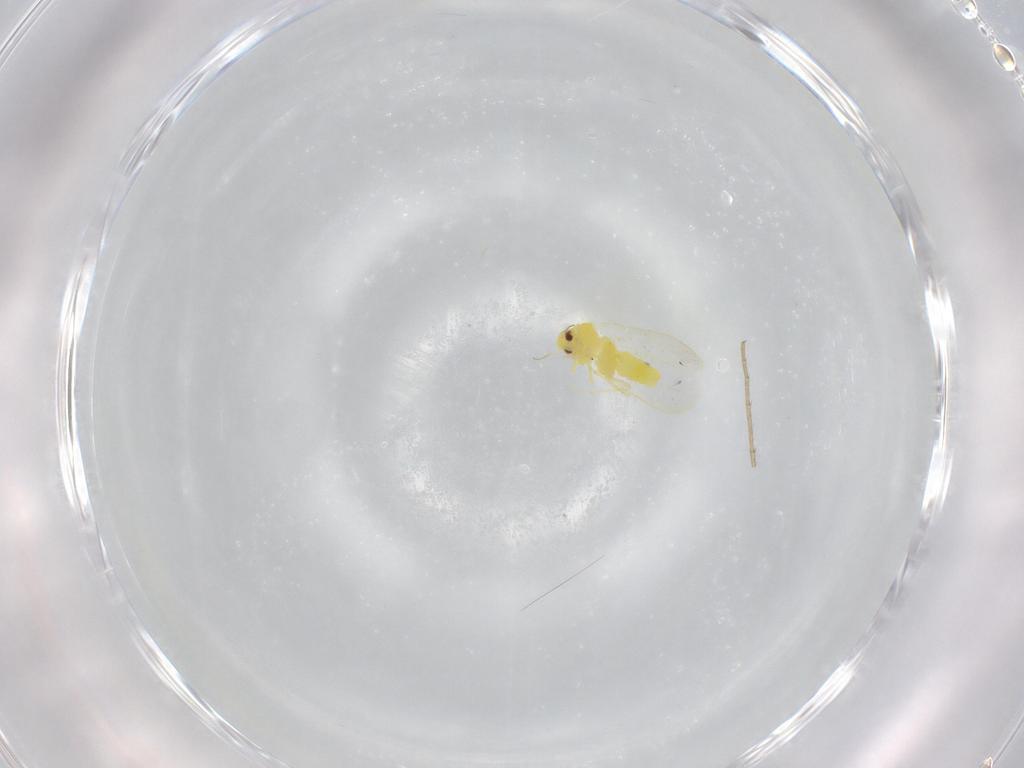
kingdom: Animalia
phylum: Arthropoda
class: Insecta
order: Hemiptera
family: Aleyrodidae
